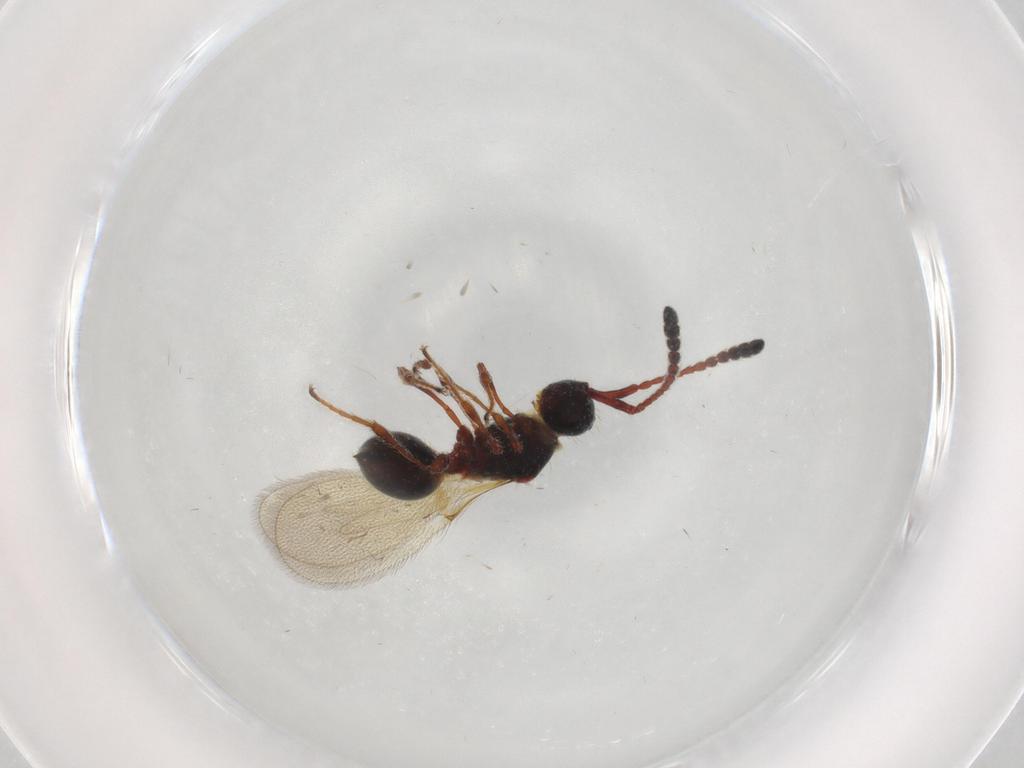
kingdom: Animalia
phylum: Arthropoda
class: Insecta
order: Hymenoptera
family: Diapriidae
